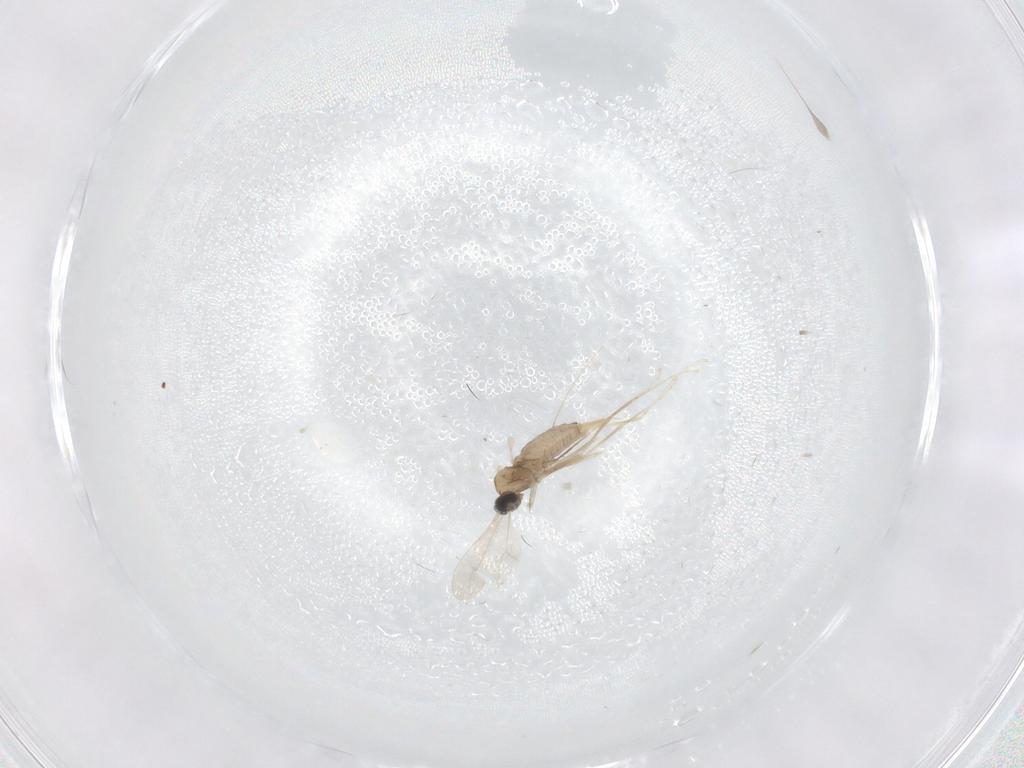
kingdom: Animalia
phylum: Arthropoda
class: Insecta
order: Diptera
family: Cecidomyiidae
